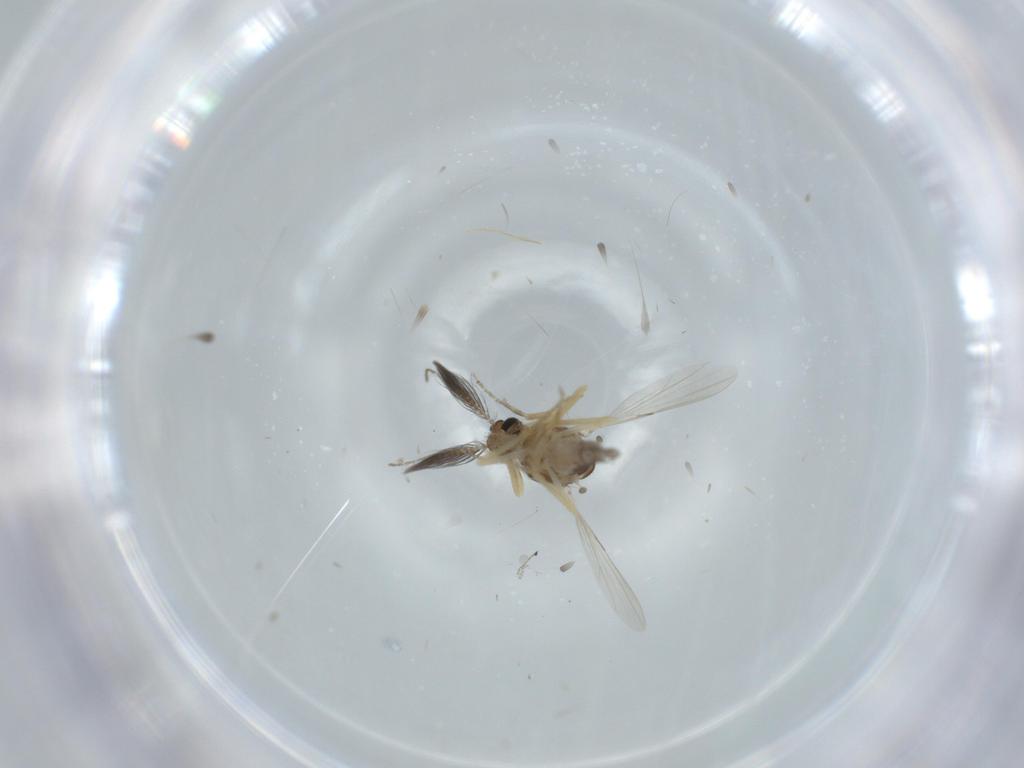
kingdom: Animalia
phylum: Arthropoda
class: Insecta
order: Diptera
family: Ceratopogonidae
